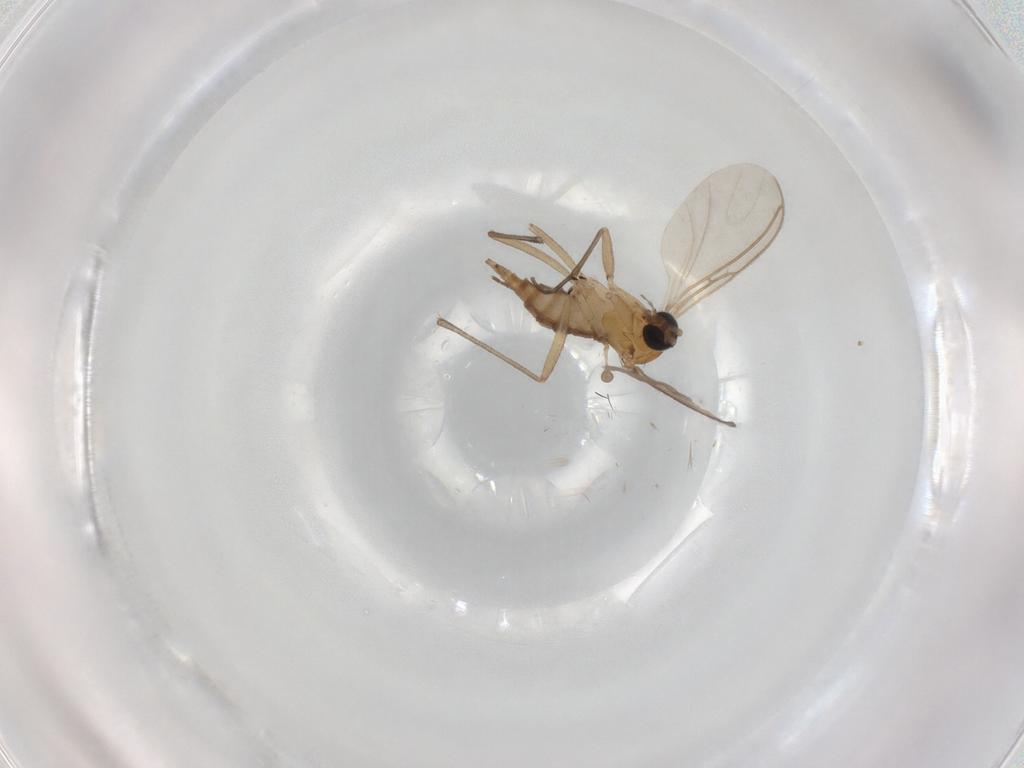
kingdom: Animalia
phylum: Arthropoda
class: Insecta
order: Diptera
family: Sciaridae
